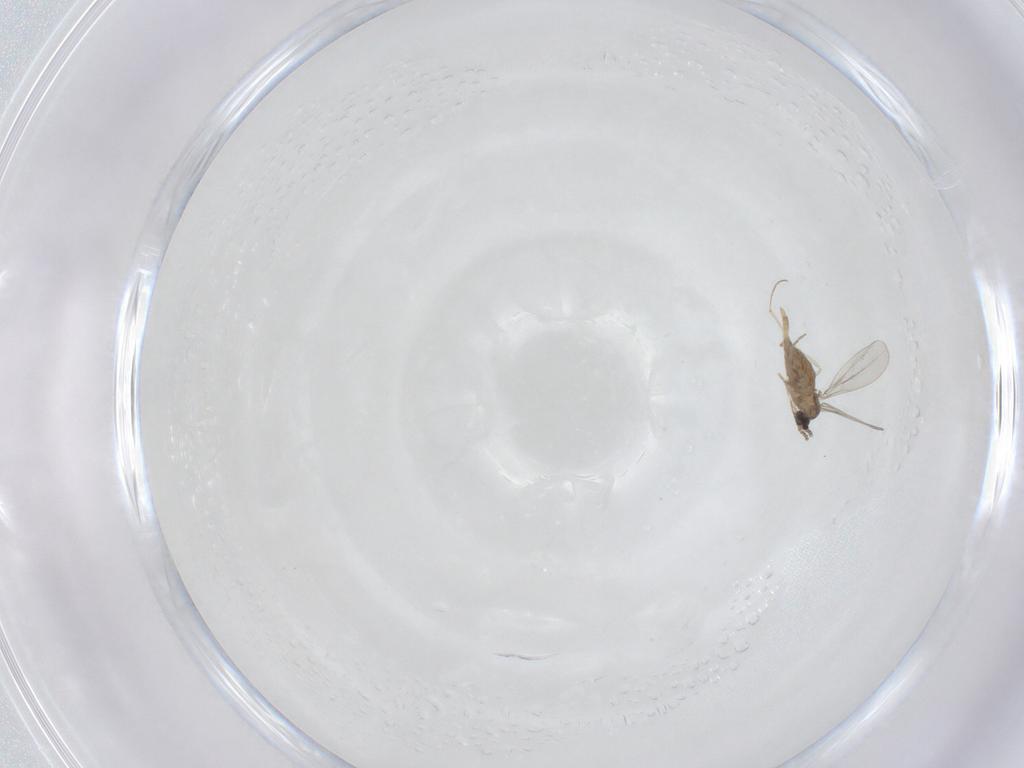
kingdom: Animalia
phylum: Arthropoda
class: Insecta
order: Diptera
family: Cecidomyiidae
